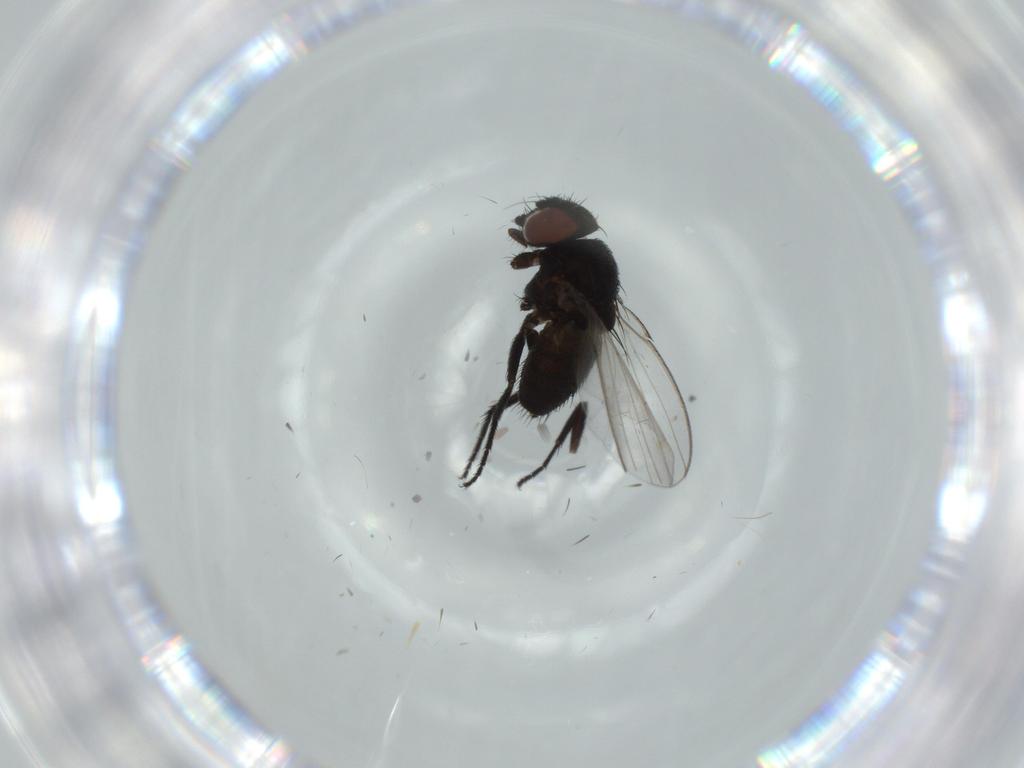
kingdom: Animalia
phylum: Arthropoda
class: Insecta
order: Diptera
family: Milichiidae
